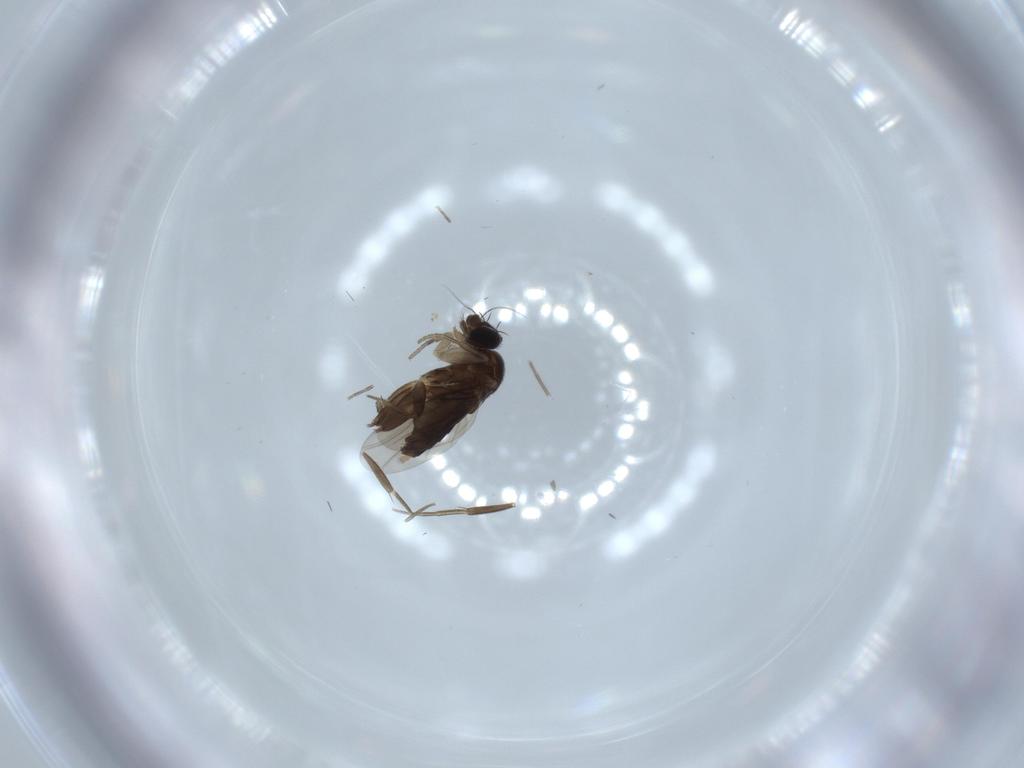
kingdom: Animalia
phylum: Arthropoda
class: Insecta
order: Diptera
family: Phoridae
